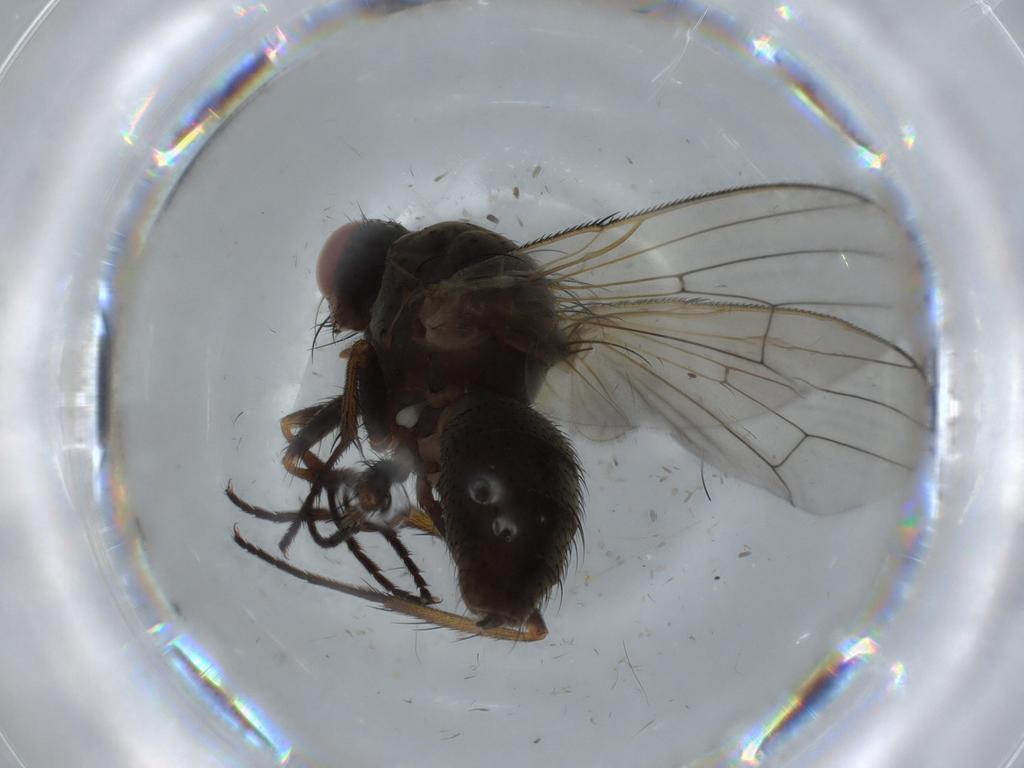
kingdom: Animalia
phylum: Arthropoda
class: Insecta
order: Diptera
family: Anthomyiidae
